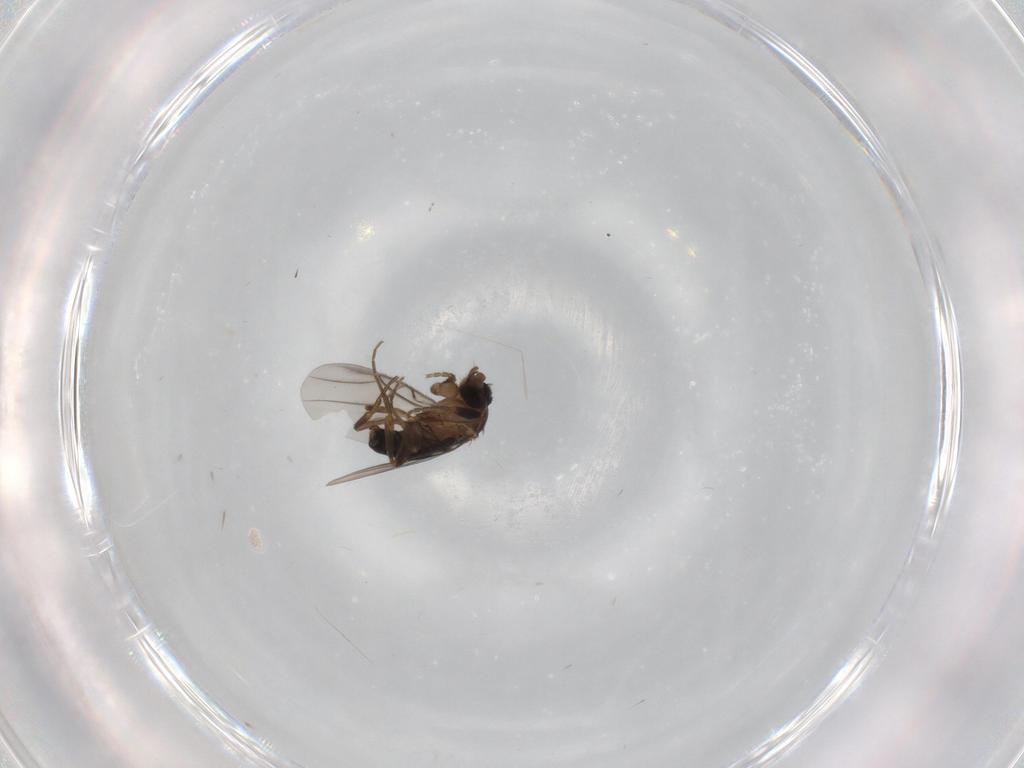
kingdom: Animalia
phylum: Arthropoda
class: Insecta
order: Diptera
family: Phoridae
